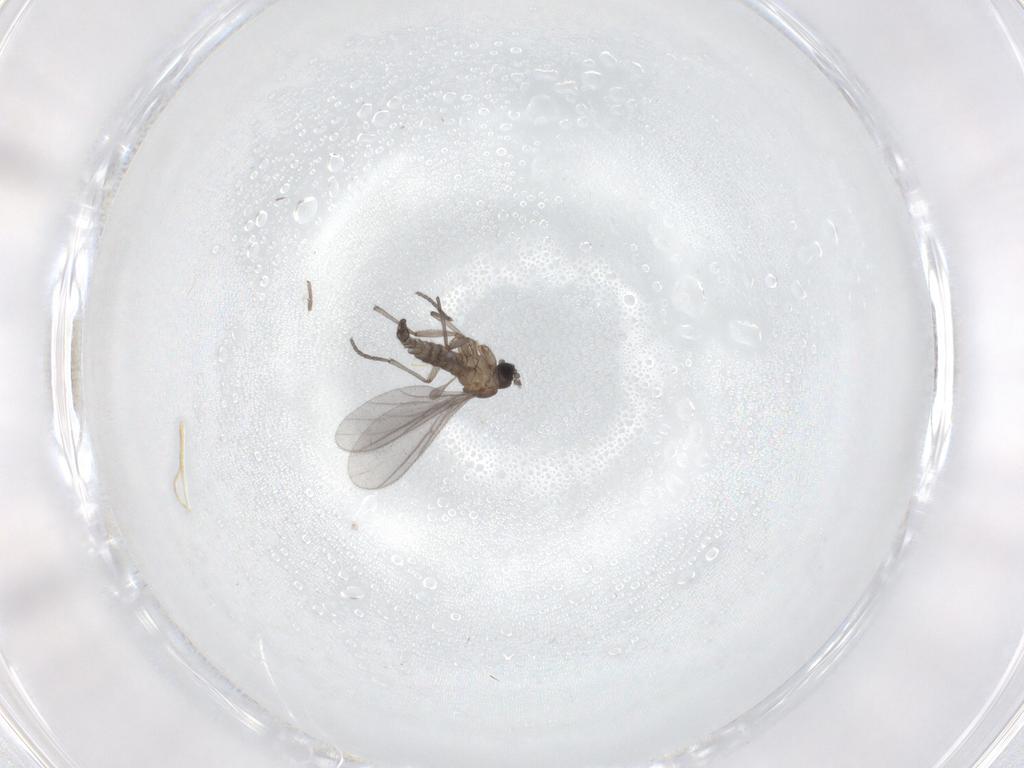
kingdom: Animalia
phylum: Arthropoda
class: Insecta
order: Diptera
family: Sciaridae
